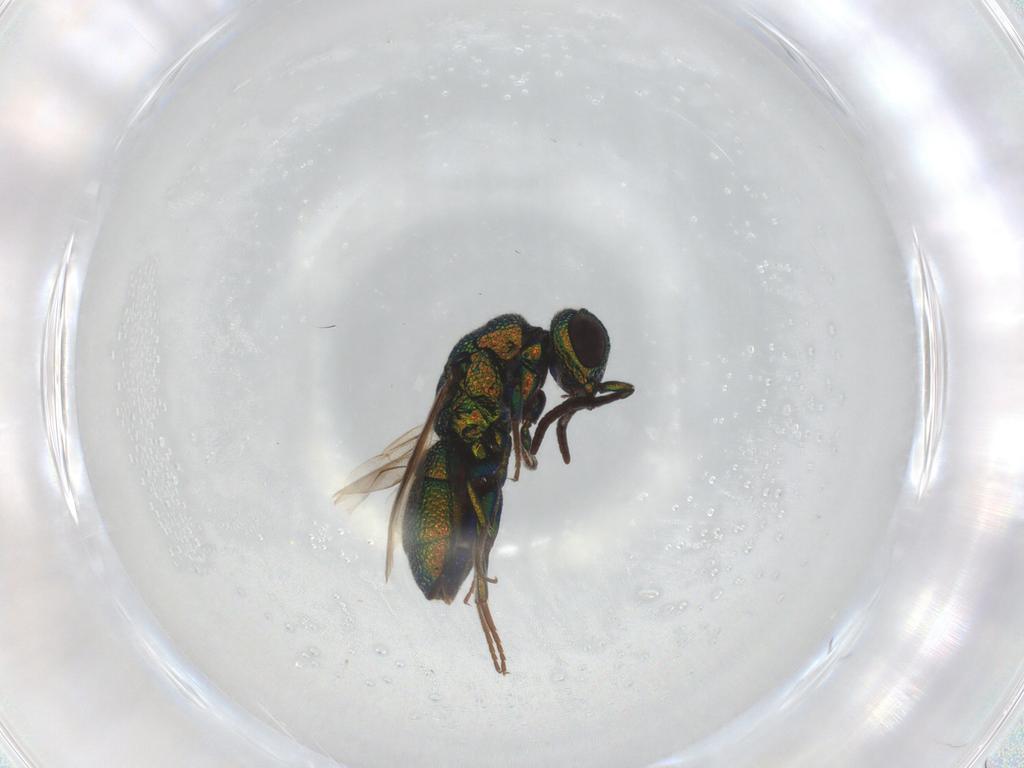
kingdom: Animalia
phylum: Arthropoda
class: Insecta
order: Hymenoptera
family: Chrysididae
